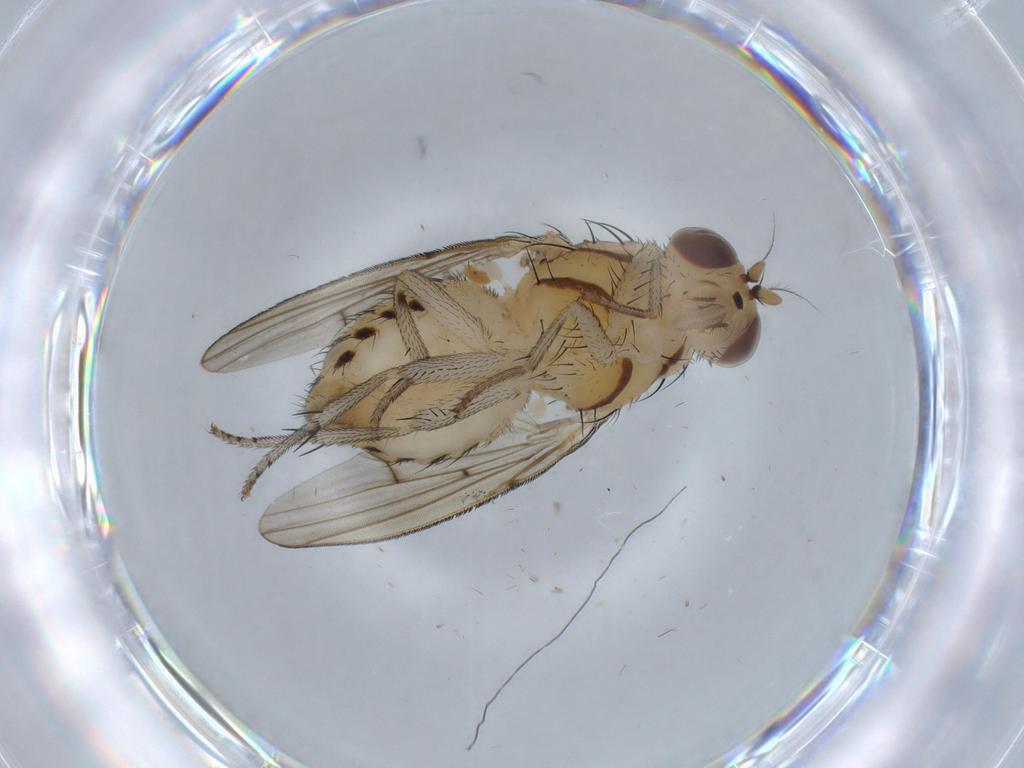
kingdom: Animalia
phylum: Arthropoda
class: Insecta
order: Diptera
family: Lauxaniidae
